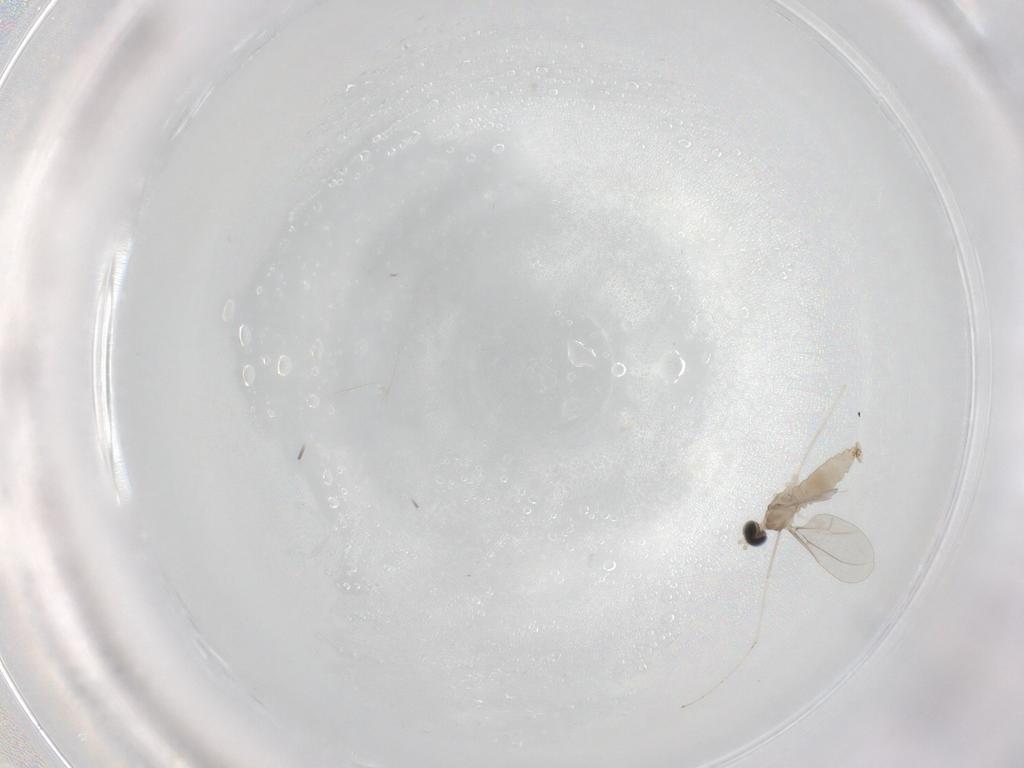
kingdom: Animalia
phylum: Arthropoda
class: Insecta
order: Diptera
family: Cecidomyiidae
